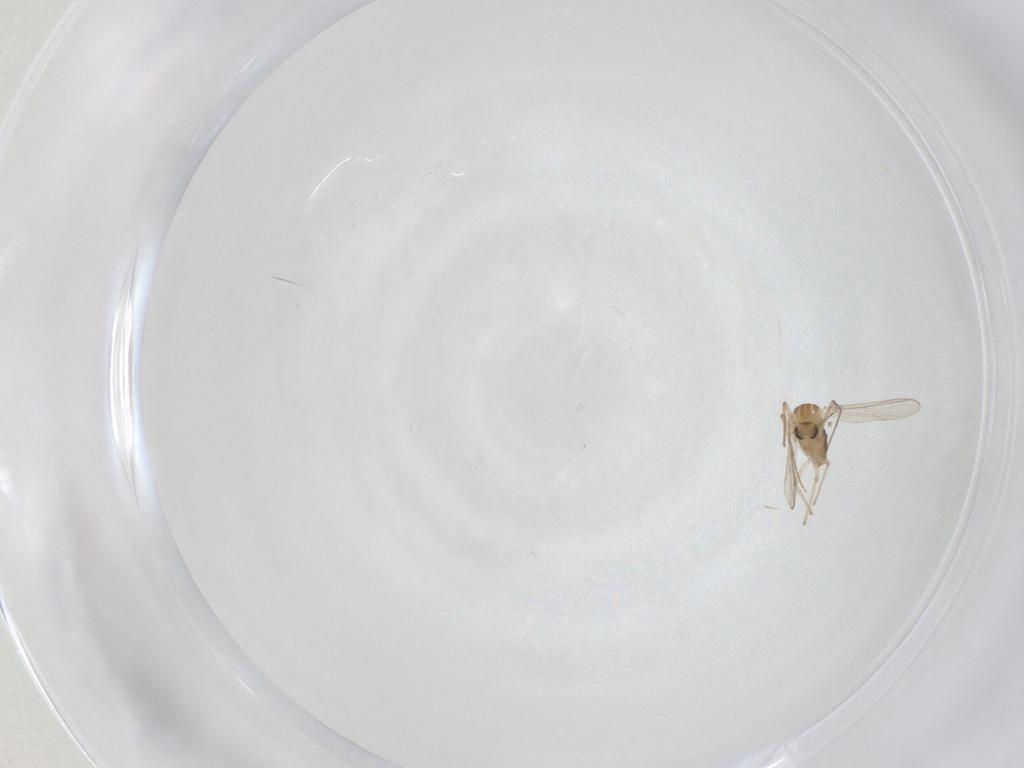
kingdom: Animalia
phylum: Arthropoda
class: Insecta
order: Diptera
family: Chironomidae
